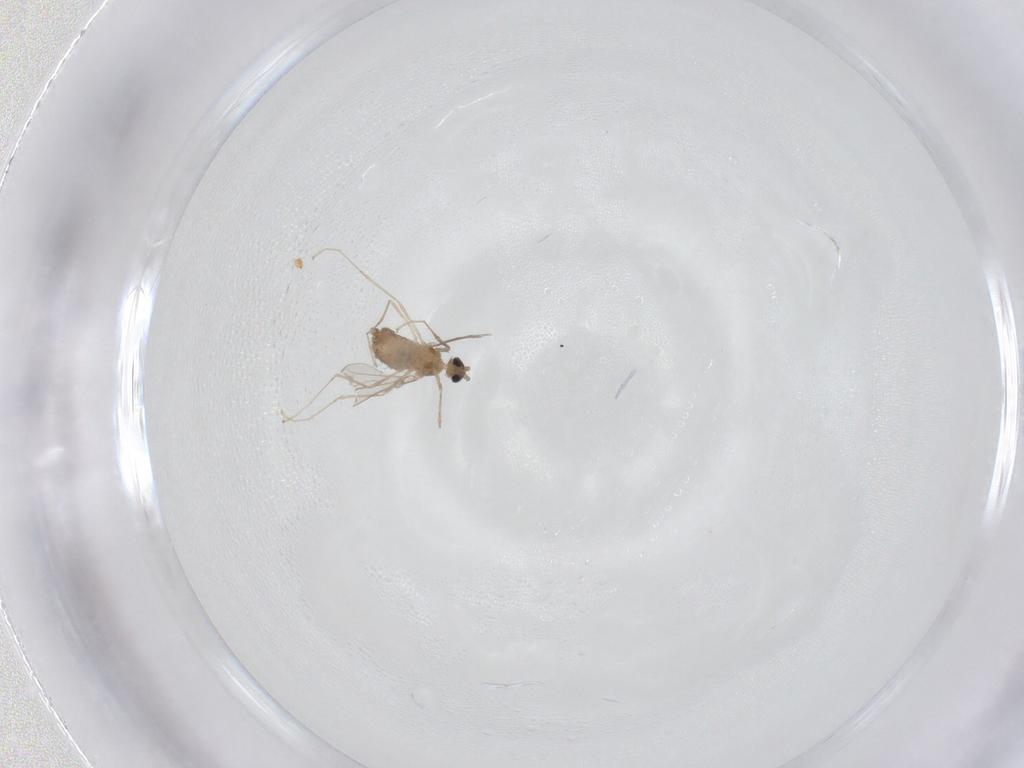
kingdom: Animalia
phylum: Arthropoda
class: Insecta
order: Diptera
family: Cecidomyiidae
